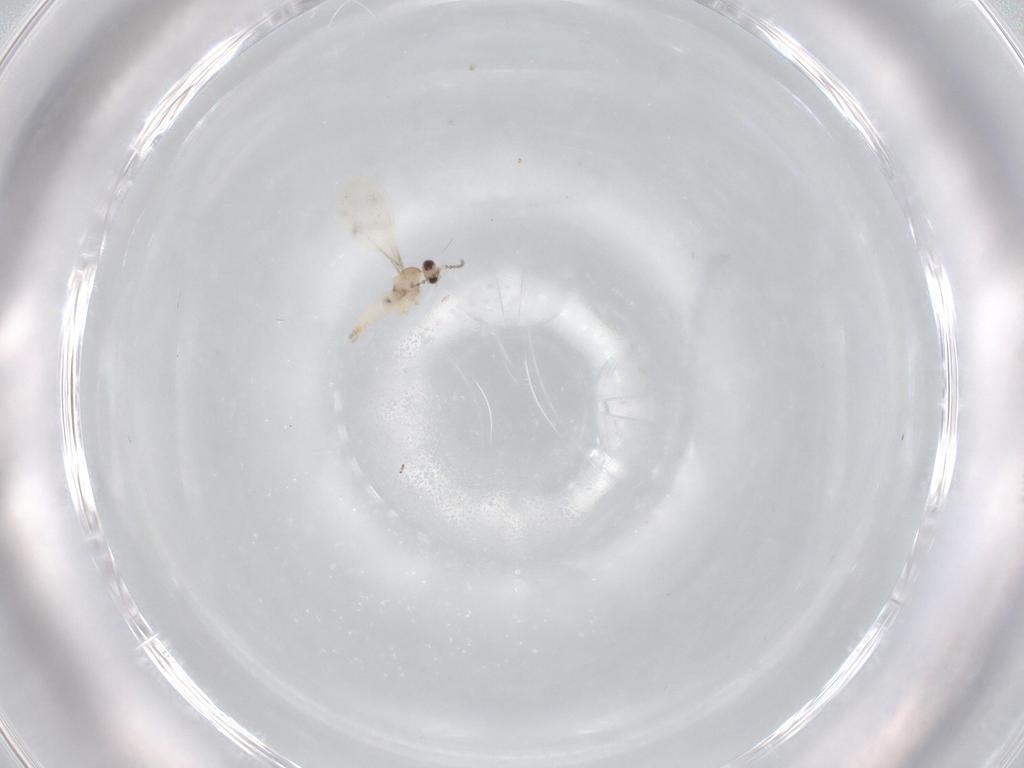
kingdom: Animalia
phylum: Arthropoda
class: Insecta
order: Diptera
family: Cecidomyiidae
